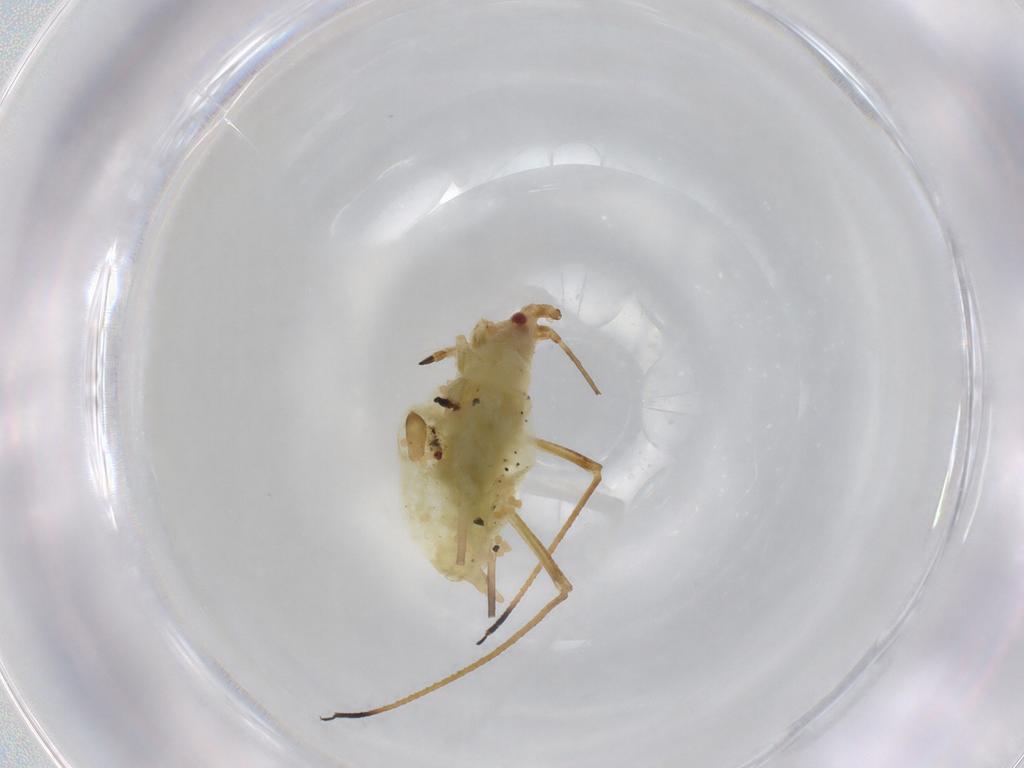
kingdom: Animalia
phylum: Arthropoda
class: Insecta
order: Hemiptera
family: Aphididae
